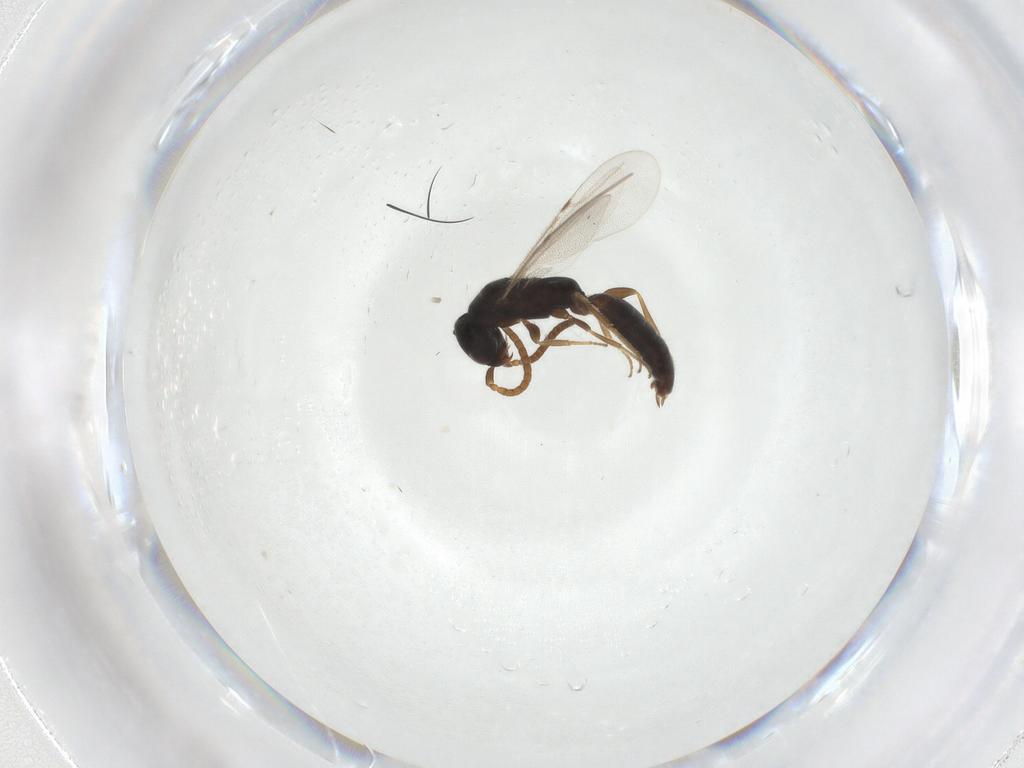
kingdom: Animalia
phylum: Arthropoda
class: Insecta
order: Hymenoptera
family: Bethylidae
